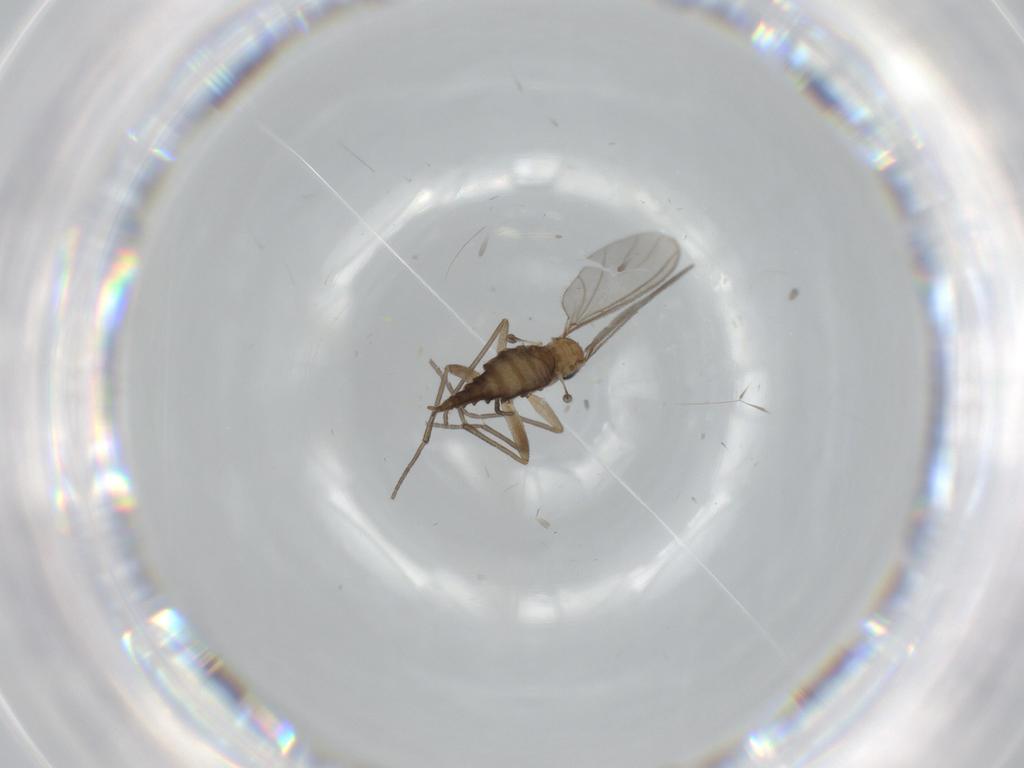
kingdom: Animalia
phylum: Arthropoda
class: Insecta
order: Diptera
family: Sciaridae
